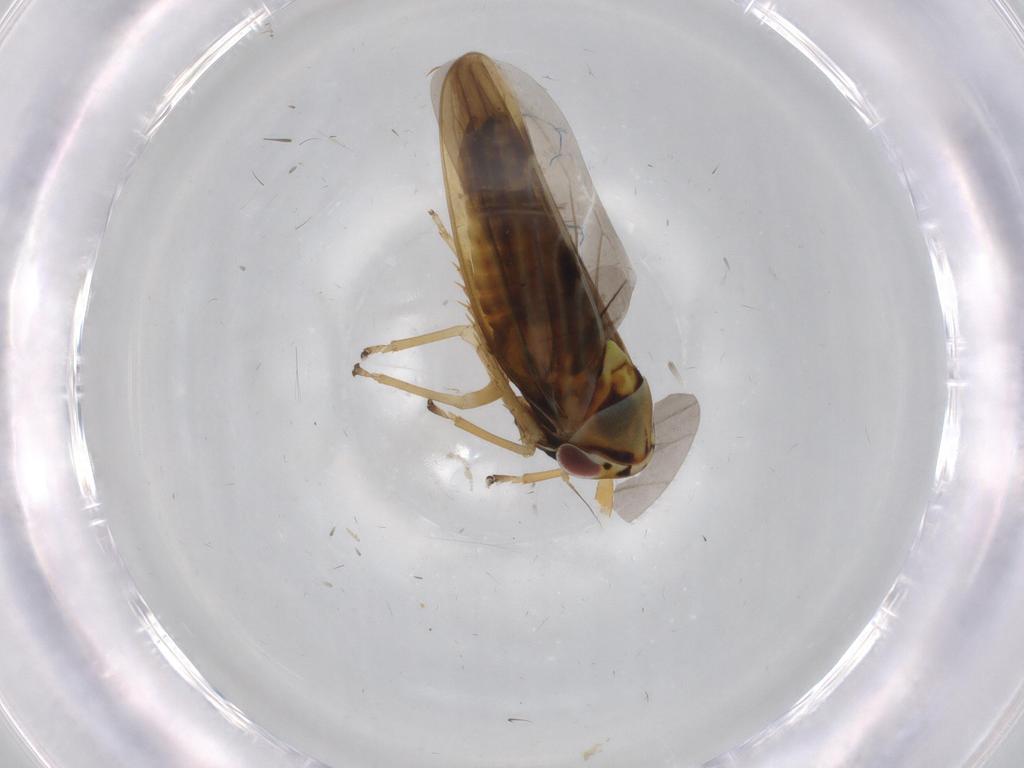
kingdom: Animalia
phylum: Arthropoda
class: Insecta
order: Hemiptera
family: Cicadellidae
